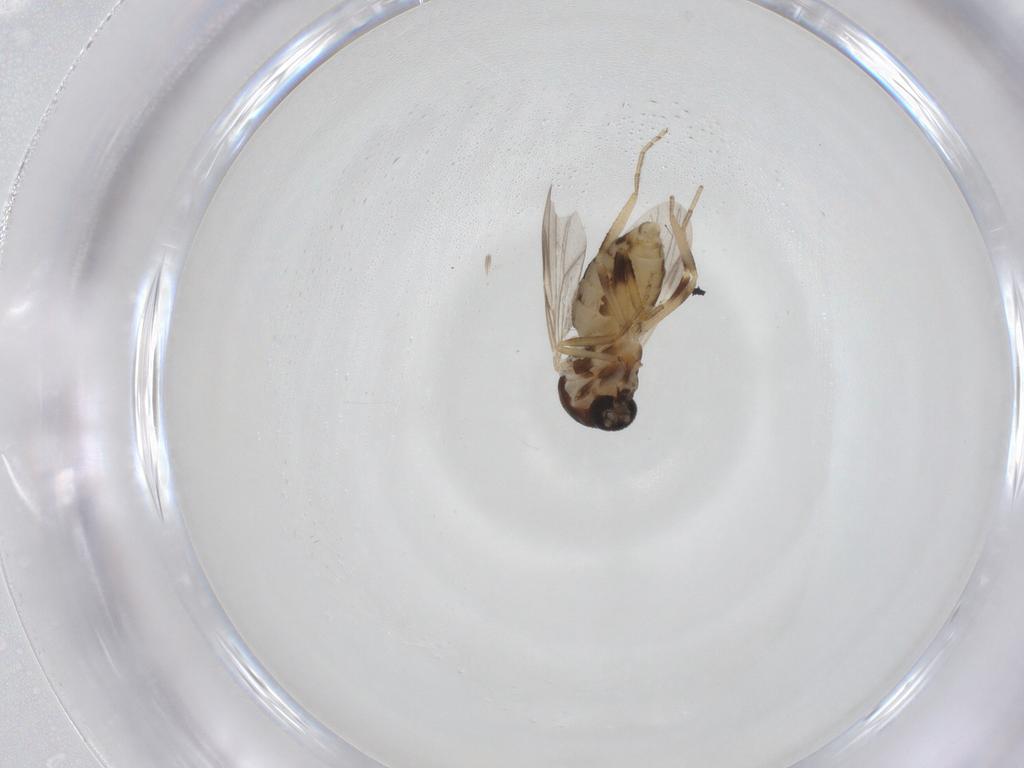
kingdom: Animalia
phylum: Arthropoda
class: Insecta
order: Diptera
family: Ceratopogonidae
